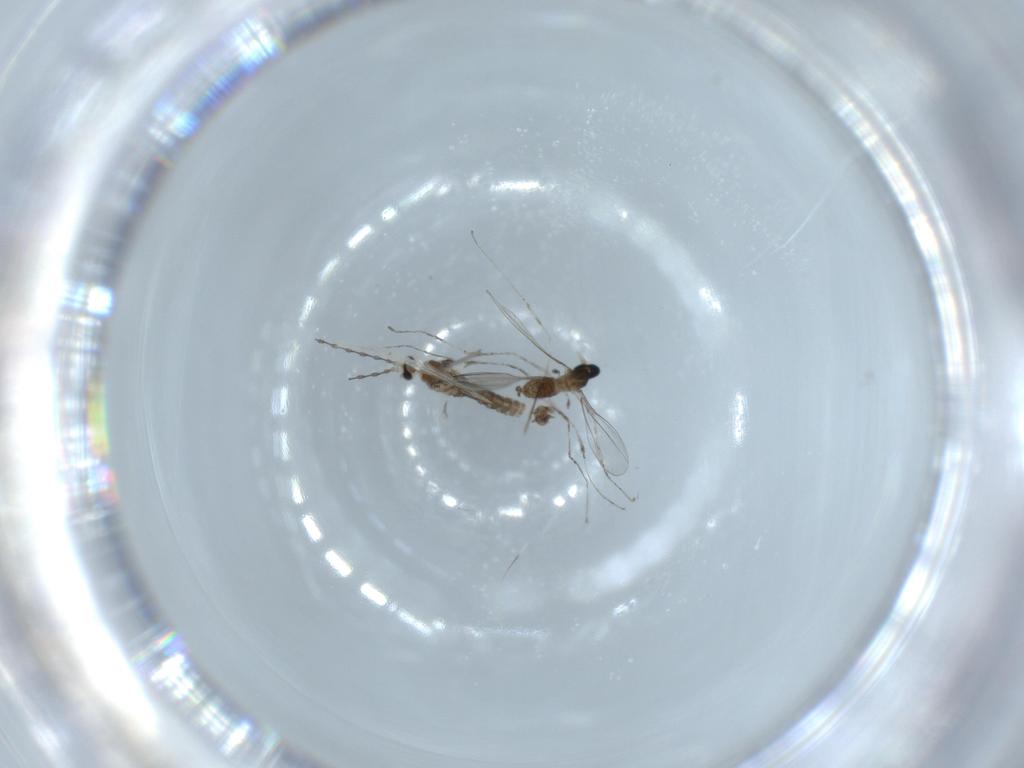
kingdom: Animalia
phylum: Arthropoda
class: Insecta
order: Diptera
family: Cecidomyiidae
